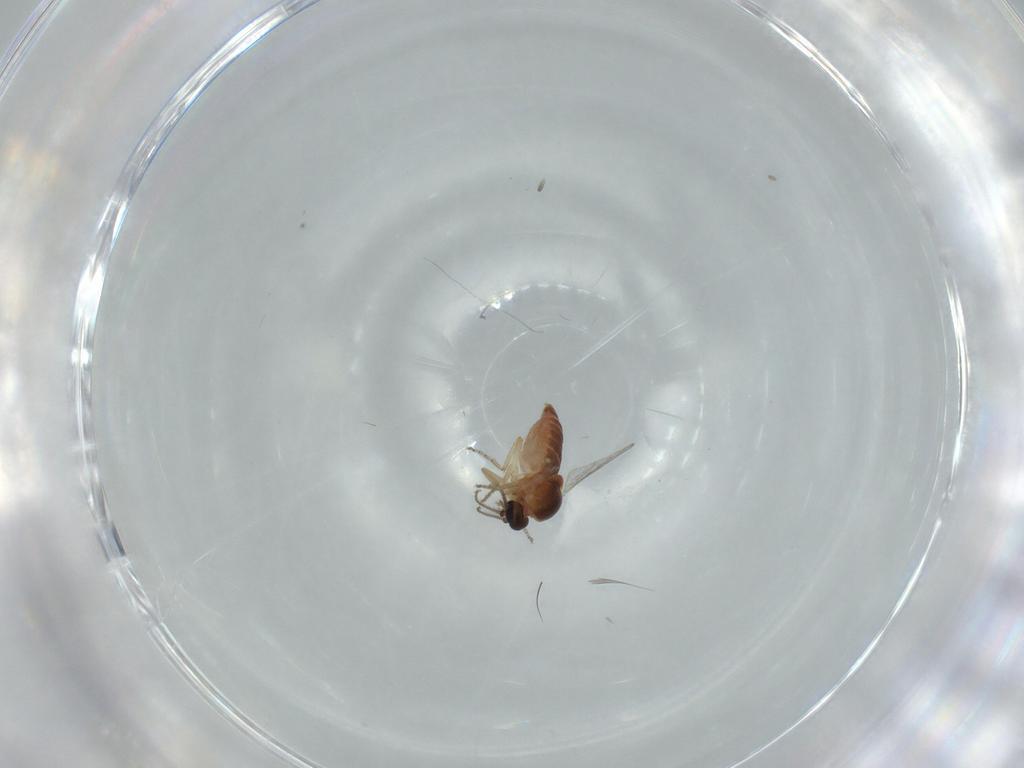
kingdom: Animalia
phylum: Arthropoda
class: Insecta
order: Diptera
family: Ceratopogonidae
